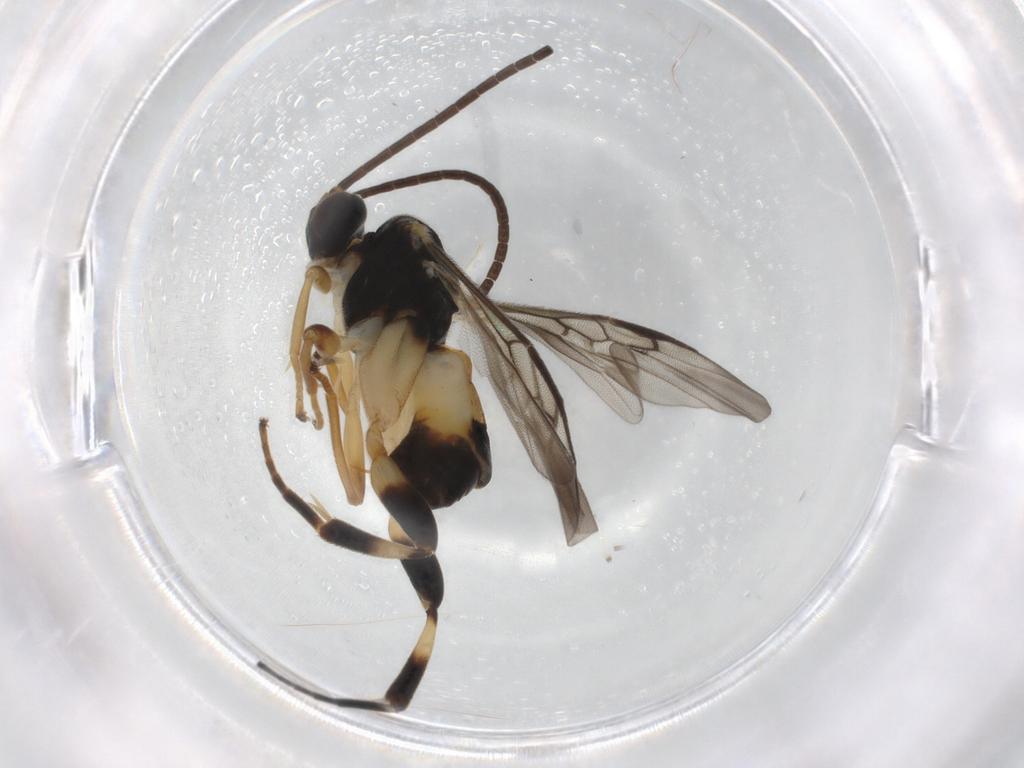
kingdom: Animalia
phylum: Arthropoda
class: Insecta
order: Hymenoptera
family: Braconidae
